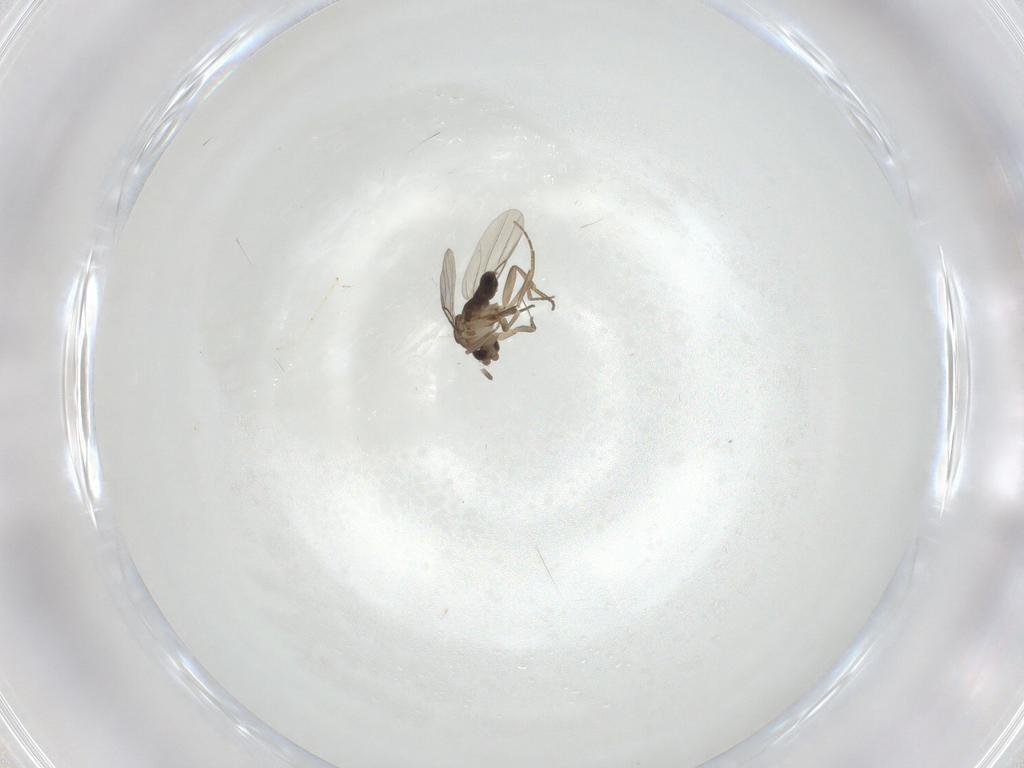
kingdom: Animalia
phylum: Arthropoda
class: Insecta
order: Diptera
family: Phoridae
